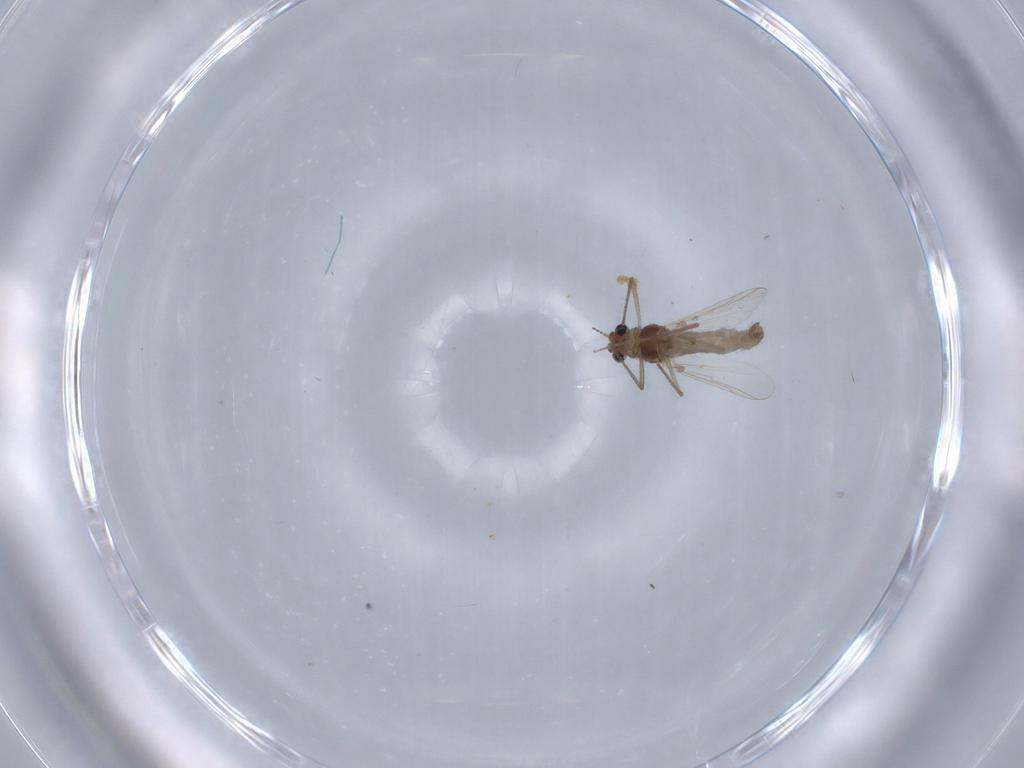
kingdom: Animalia
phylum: Arthropoda
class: Insecta
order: Diptera
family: Chironomidae
